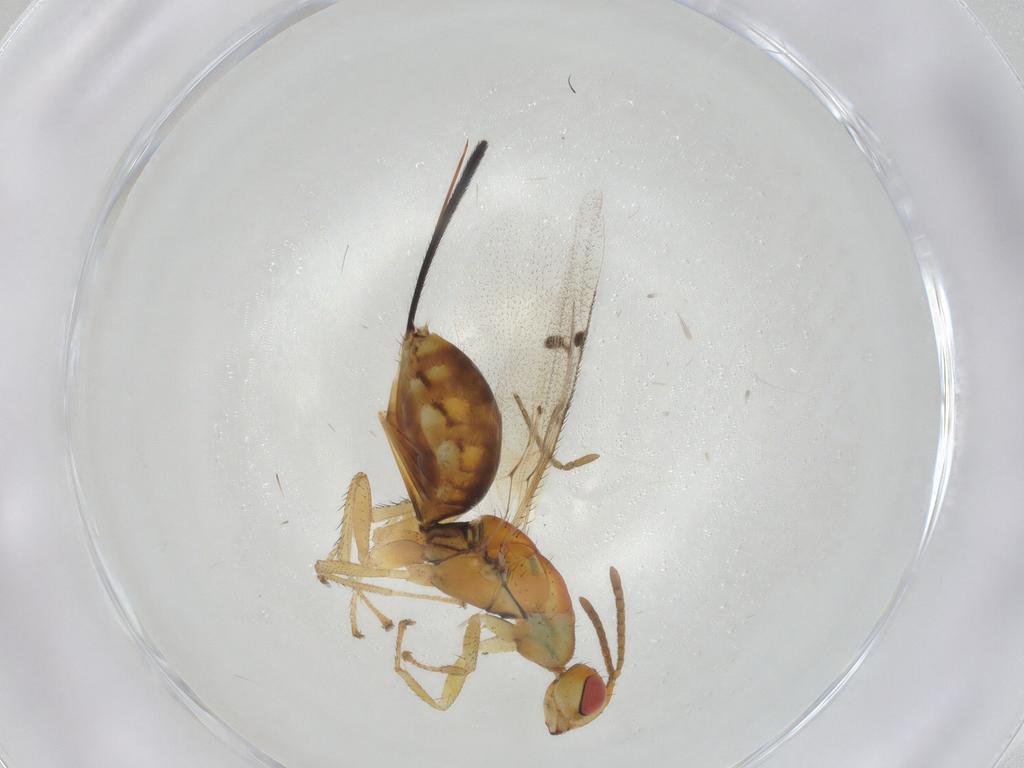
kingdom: Animalia
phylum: Arthropoda
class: Insecta
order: Hymenoptera
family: Megastigmidae
